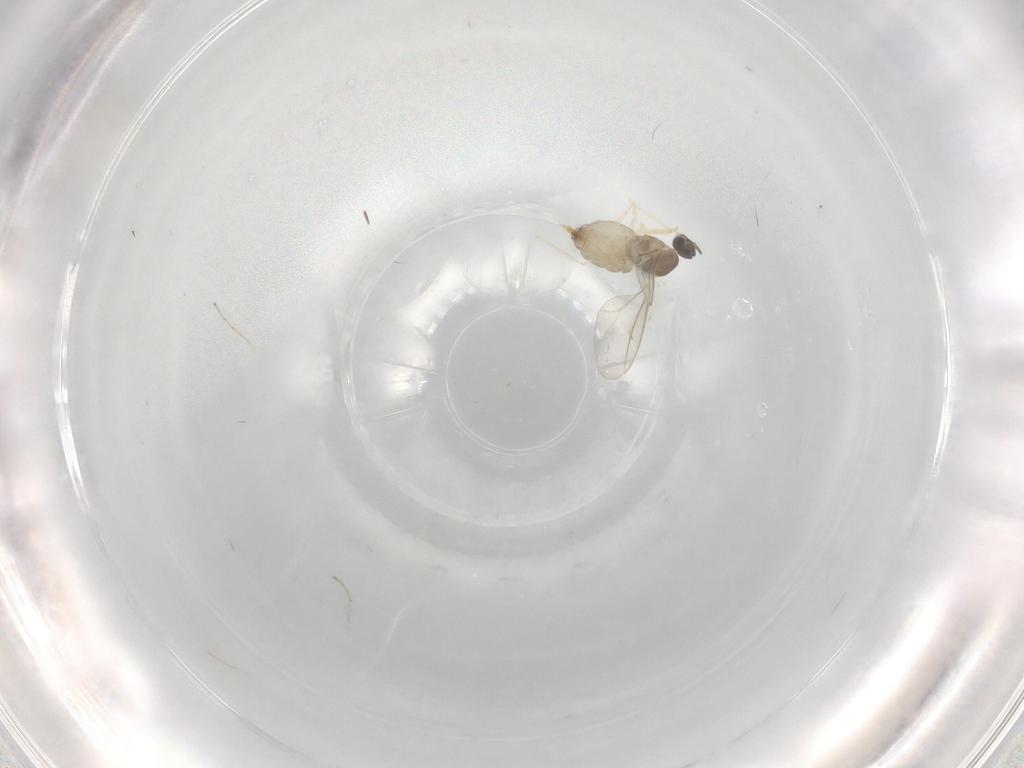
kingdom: Animalia
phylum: Arthropoda
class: Insecta
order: Diptera
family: Cecidomyiidae
